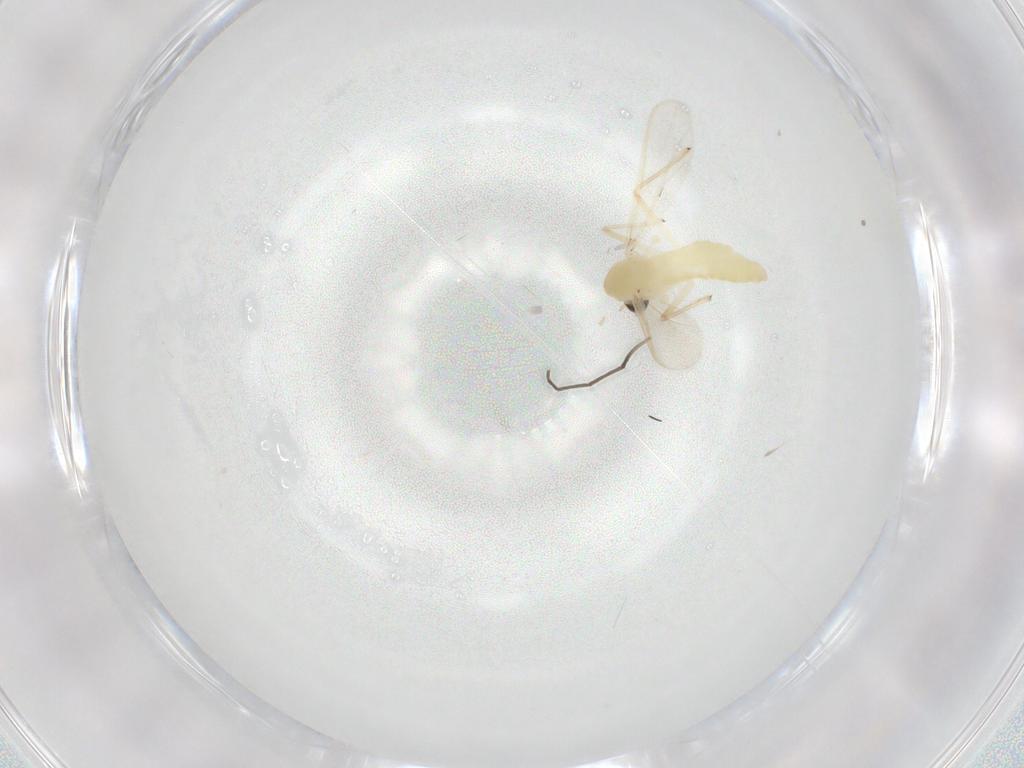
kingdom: Animalia
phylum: Arthropoda
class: Insecta
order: Diptera
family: Chironomidae
